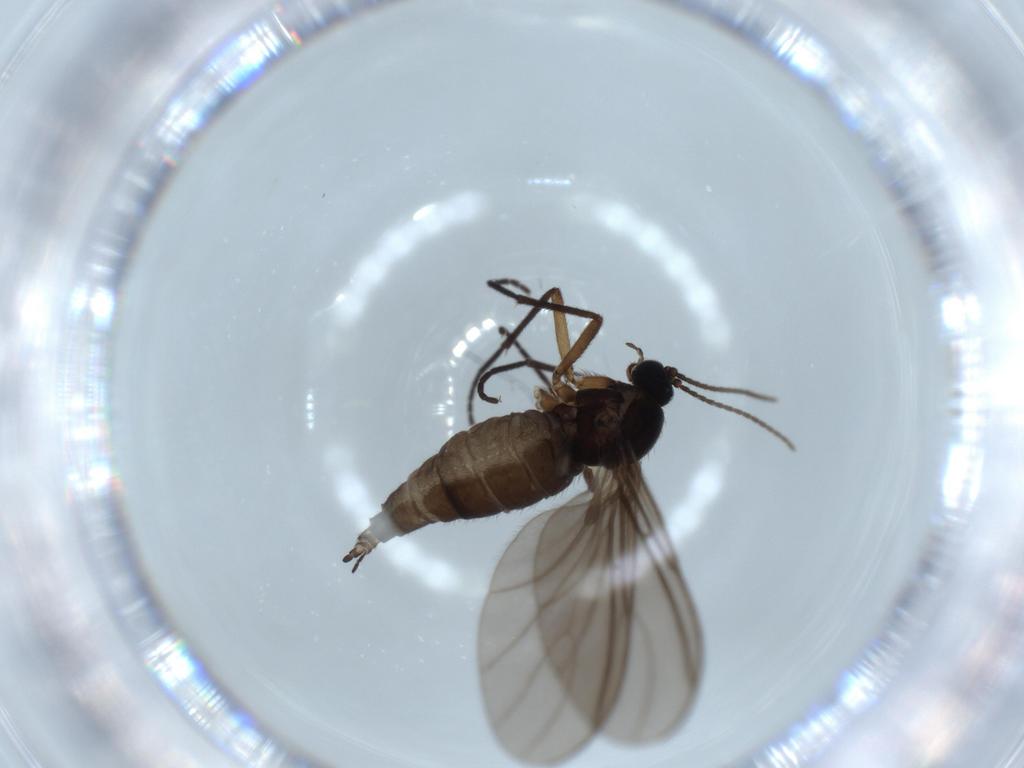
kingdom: Animalia
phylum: Arthropoda
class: Insecta
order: Diptera
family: Sciaridae
